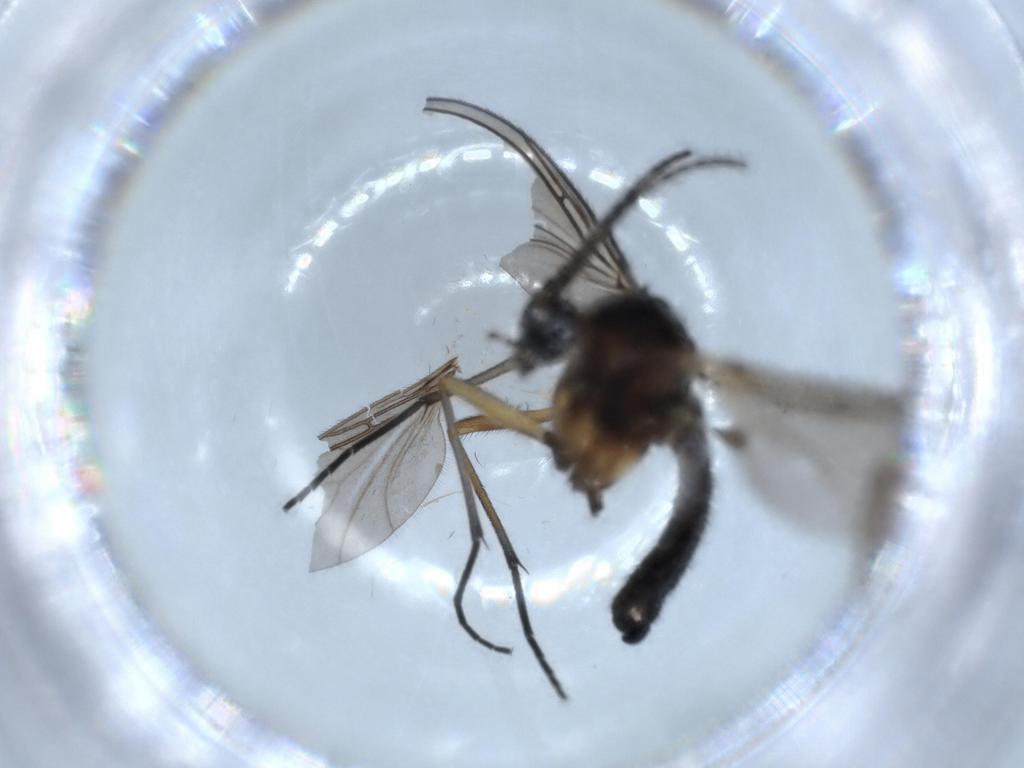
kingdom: Animalia
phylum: Arthropoda
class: Insecta
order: Diptera
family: Sciaridae
